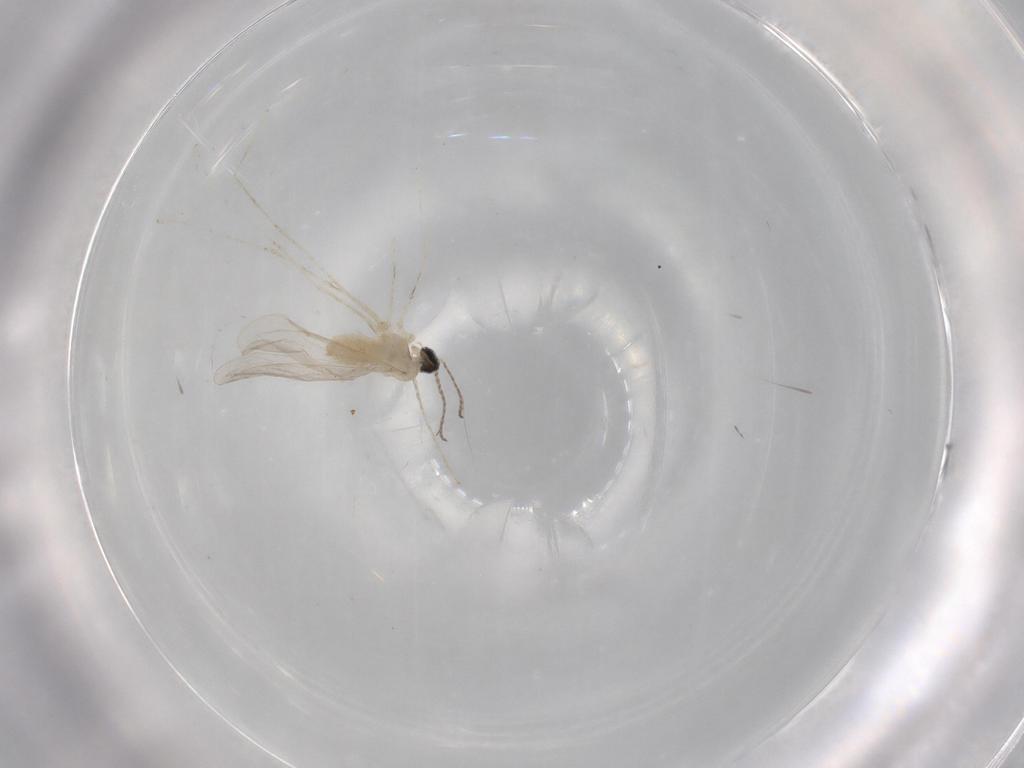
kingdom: Animalia
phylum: Arthropoda
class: Insecta
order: Diptera
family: Cecidomyiidae
